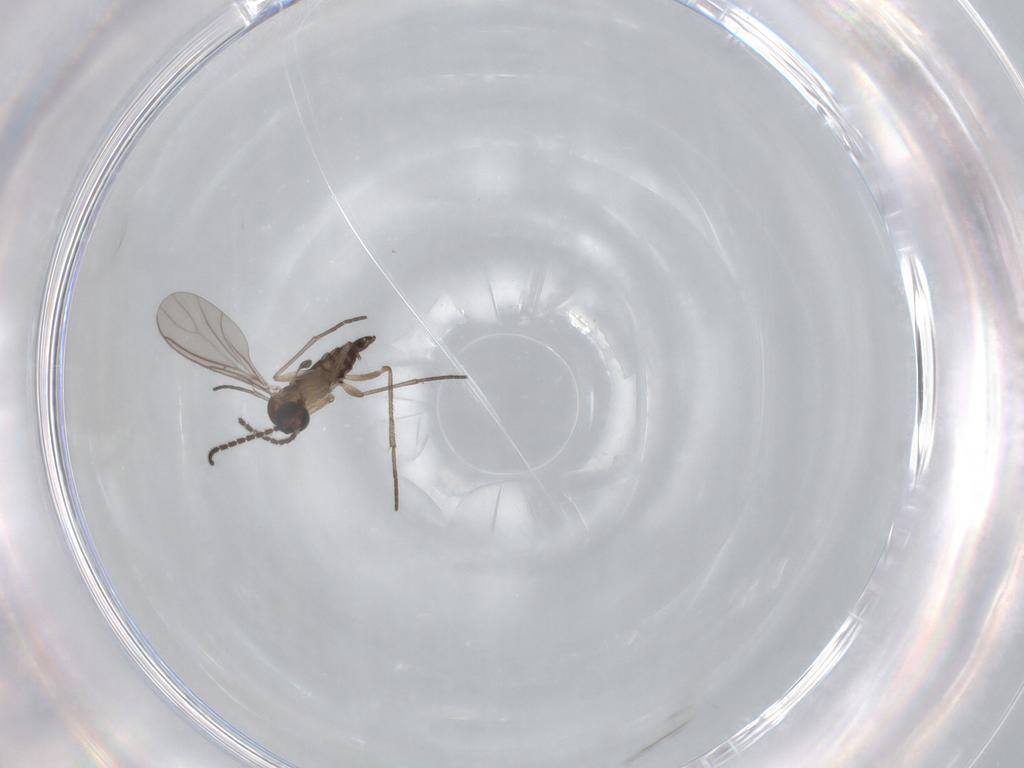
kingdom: Animalia
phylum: Arthropoda
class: Insecta
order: Diptera
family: Sciaridae
